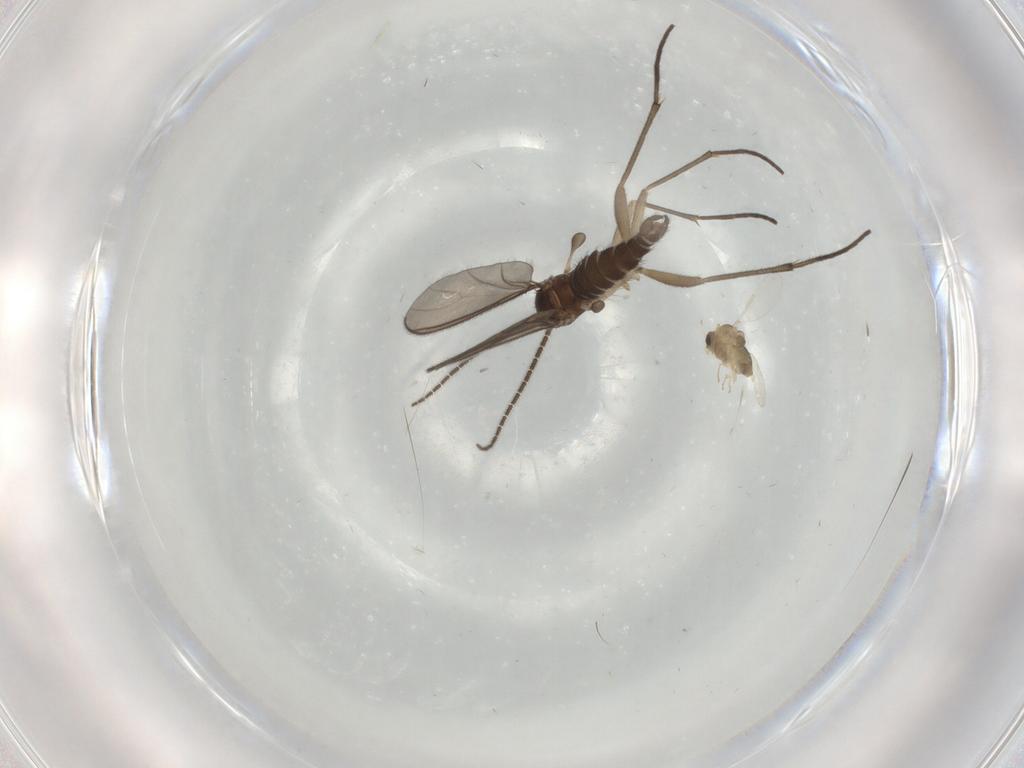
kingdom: Animalia
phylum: Arthropoda
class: Insecta
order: Diptera
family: Chironomidae
